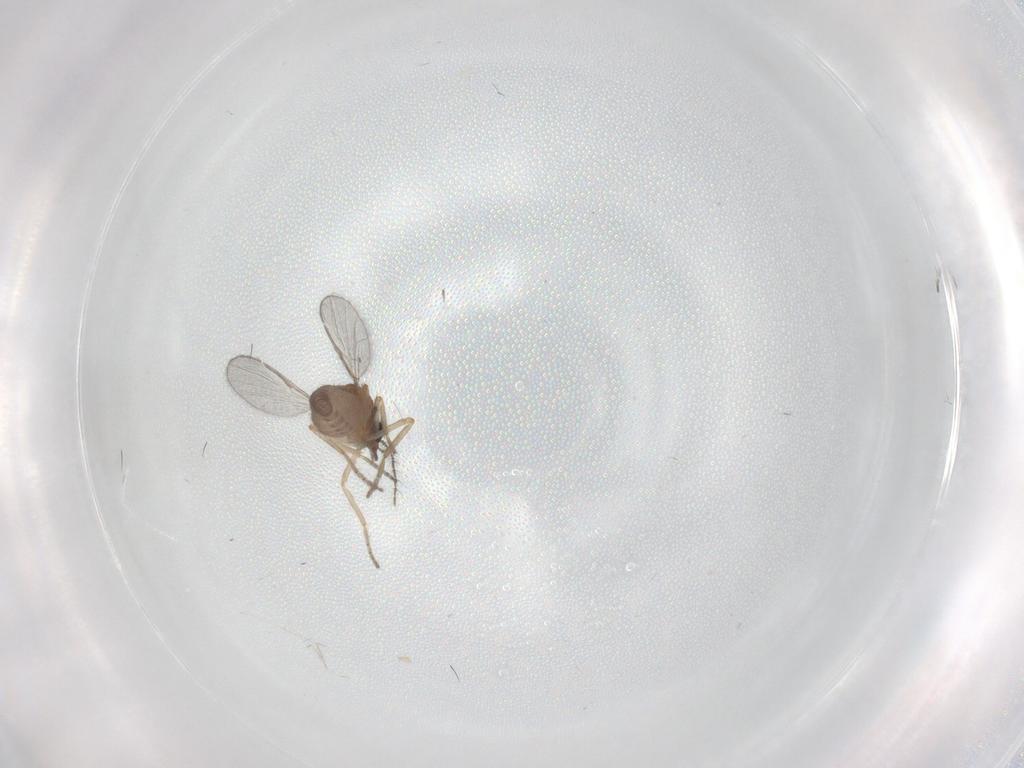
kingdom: Animalia
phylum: Arthropoda
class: Insecta
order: Diptera
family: Ceratopogonidae
